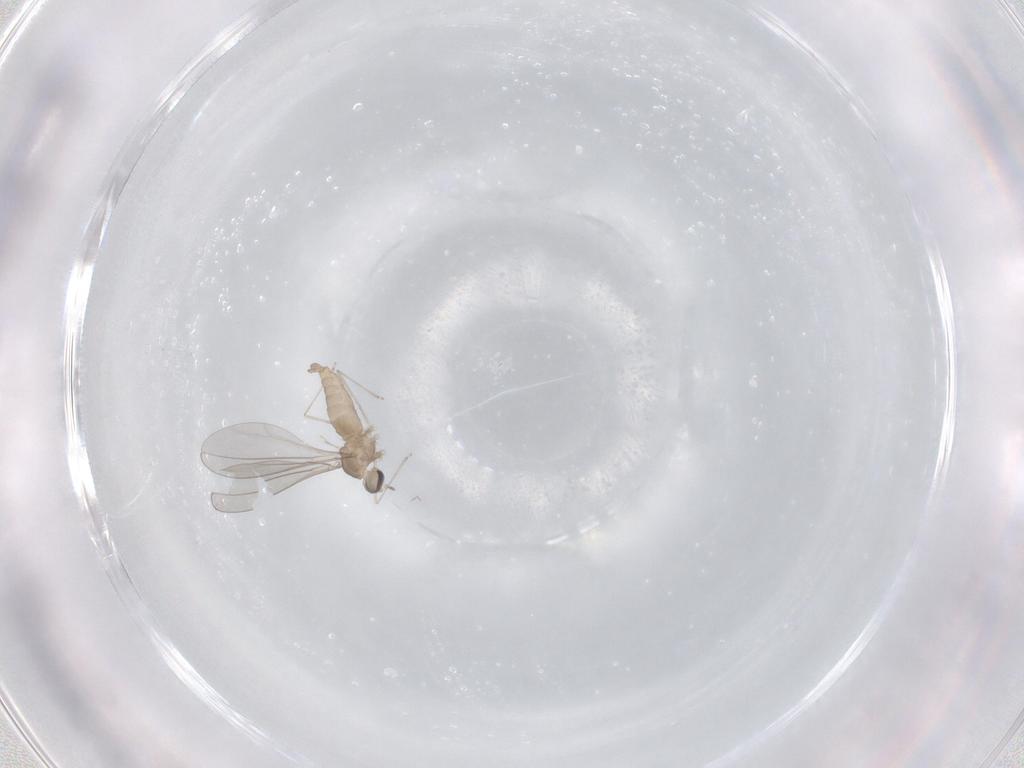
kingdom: Animalia
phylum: Arthropoda
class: Insecta
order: Diptera
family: Cecidomyiidae
